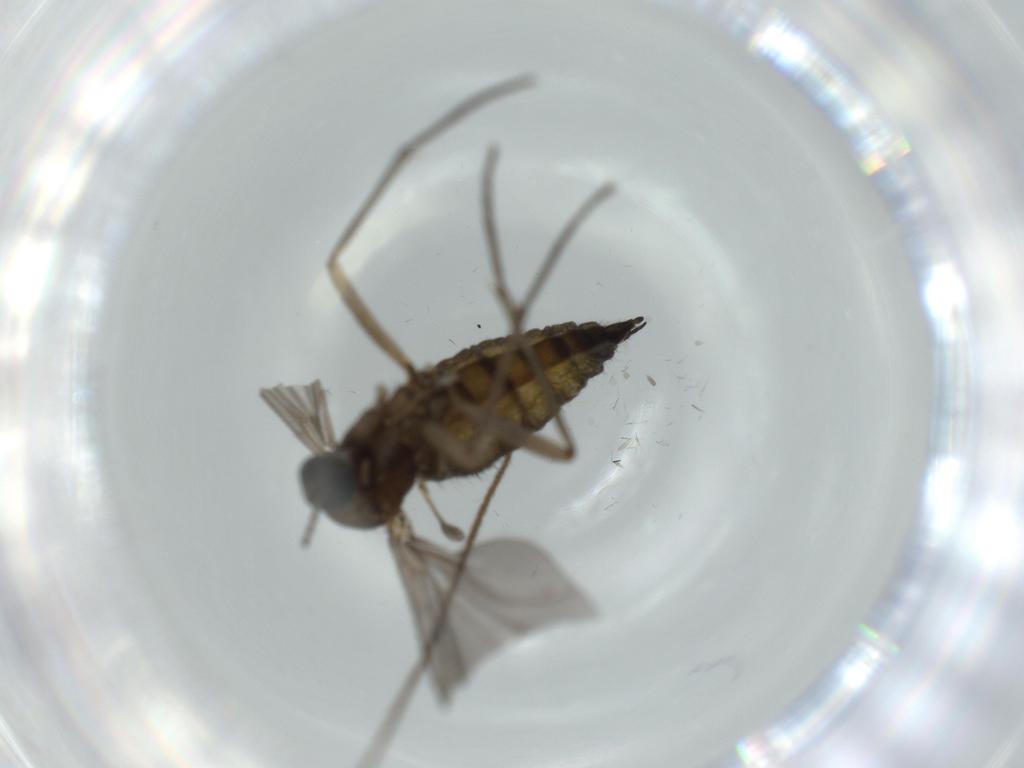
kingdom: Animalia
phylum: Arthropoda
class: Insecta
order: Diptera
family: Sciaridae
